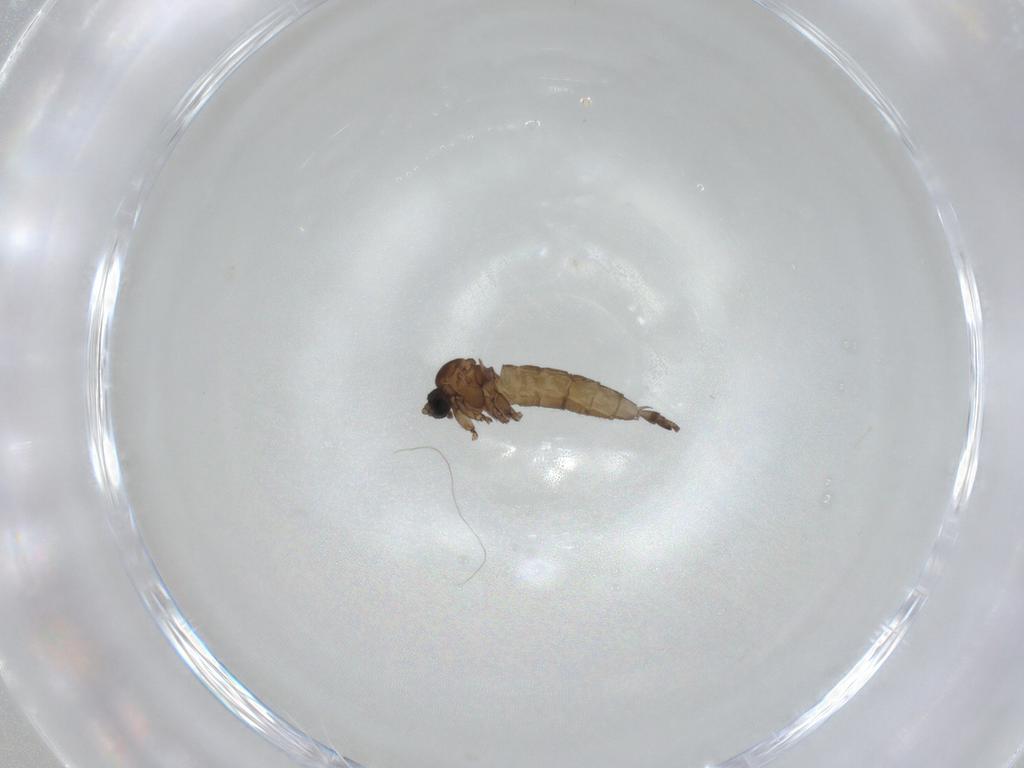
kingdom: Animalia
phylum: Arthropoda
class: Insecta
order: Diptera
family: Sciaridae
